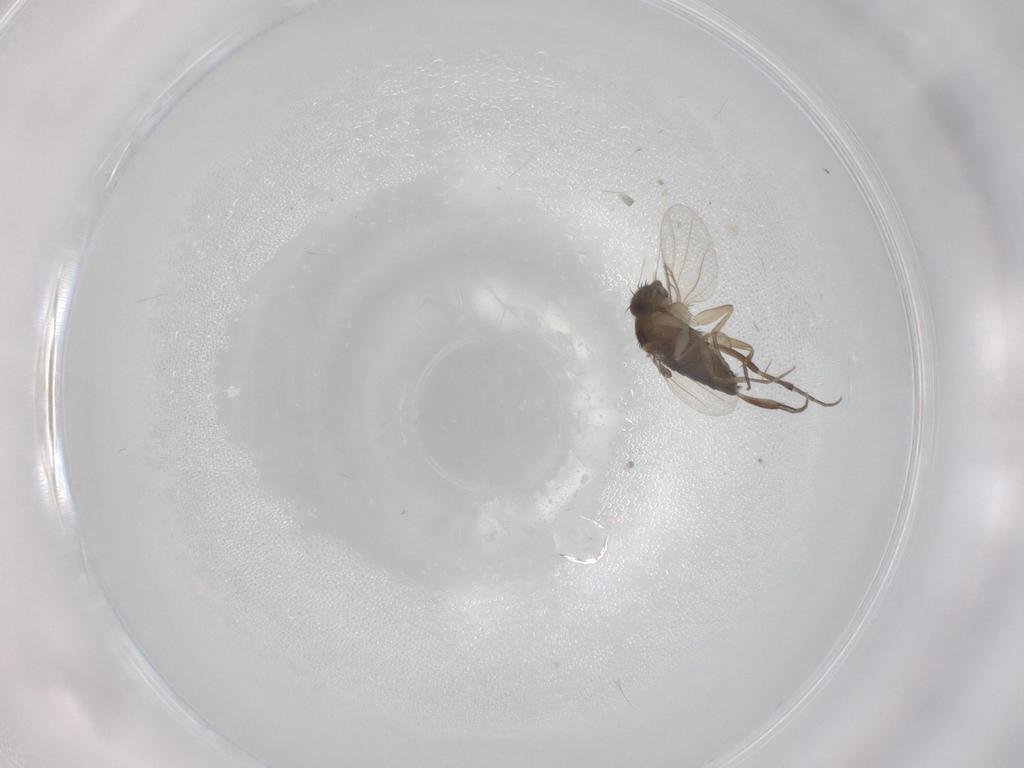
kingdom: Animalia
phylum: Arthropoda
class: Insecta
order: Diptera
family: Phoridae
